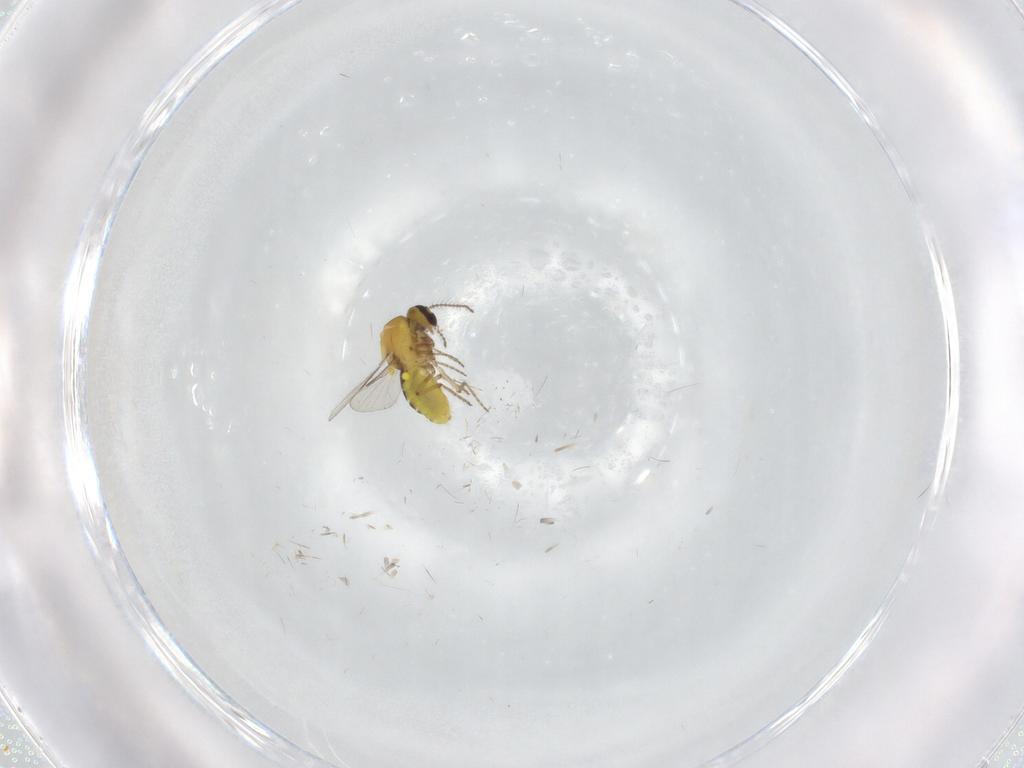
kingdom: Animalia
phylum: Arthropoda
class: Insecta
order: Diptera
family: Ceratopogonidae
